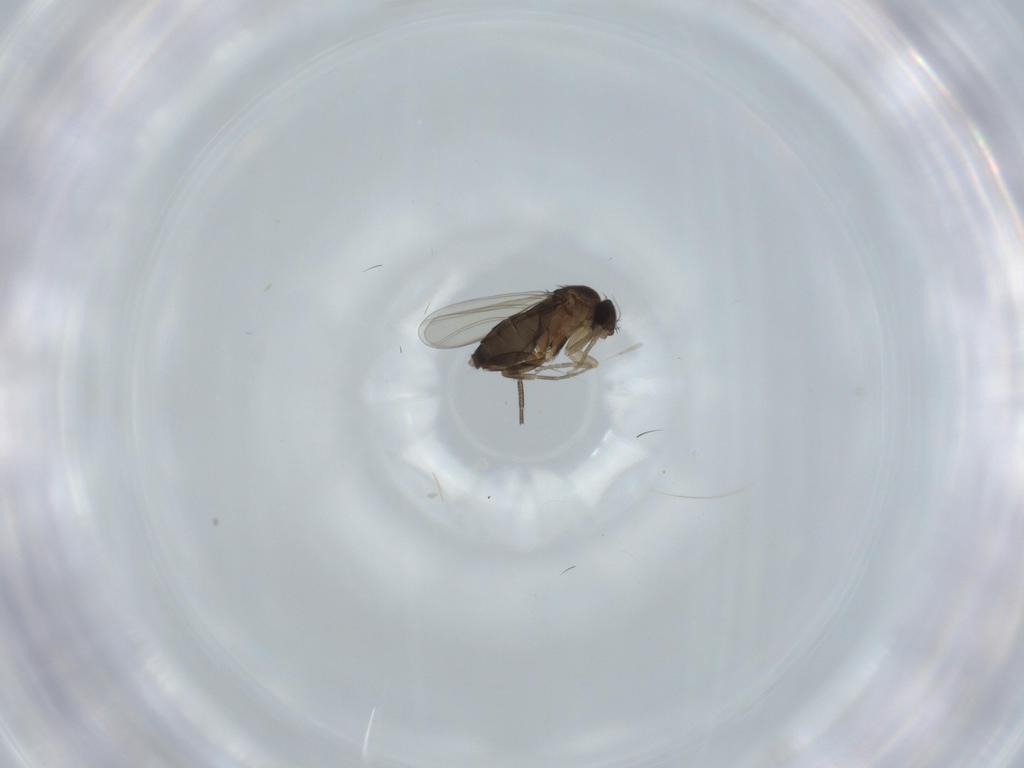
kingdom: Animalia
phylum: Arthropoda
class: Insecta
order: Diptera
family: Phoridae
